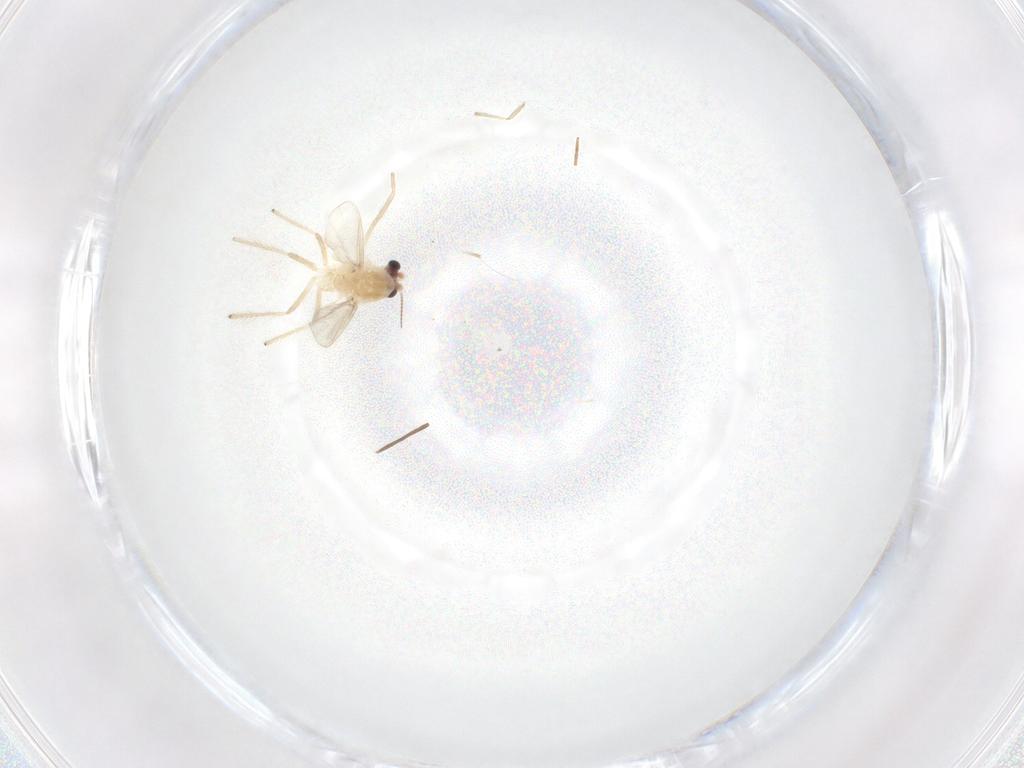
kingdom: Animalia
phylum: Arthropoda
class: Insecta
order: Diptera
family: Chironomidae
